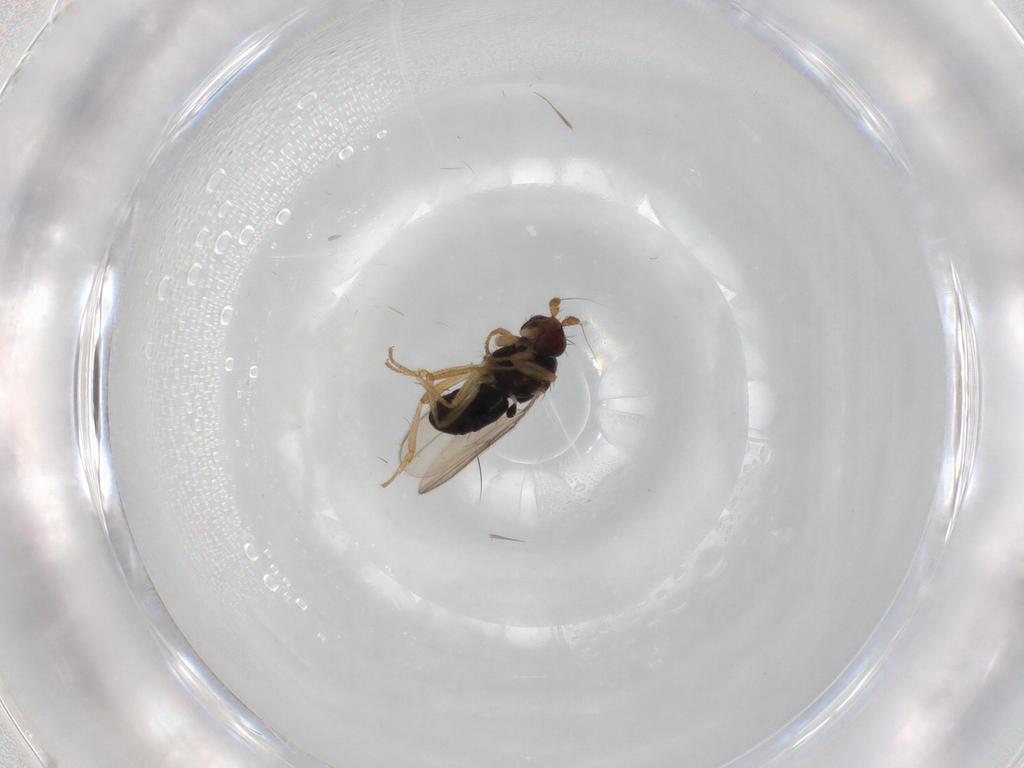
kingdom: Animalia
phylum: Arthropoda
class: Insecta
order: Diptera
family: Sphaeroceridae
